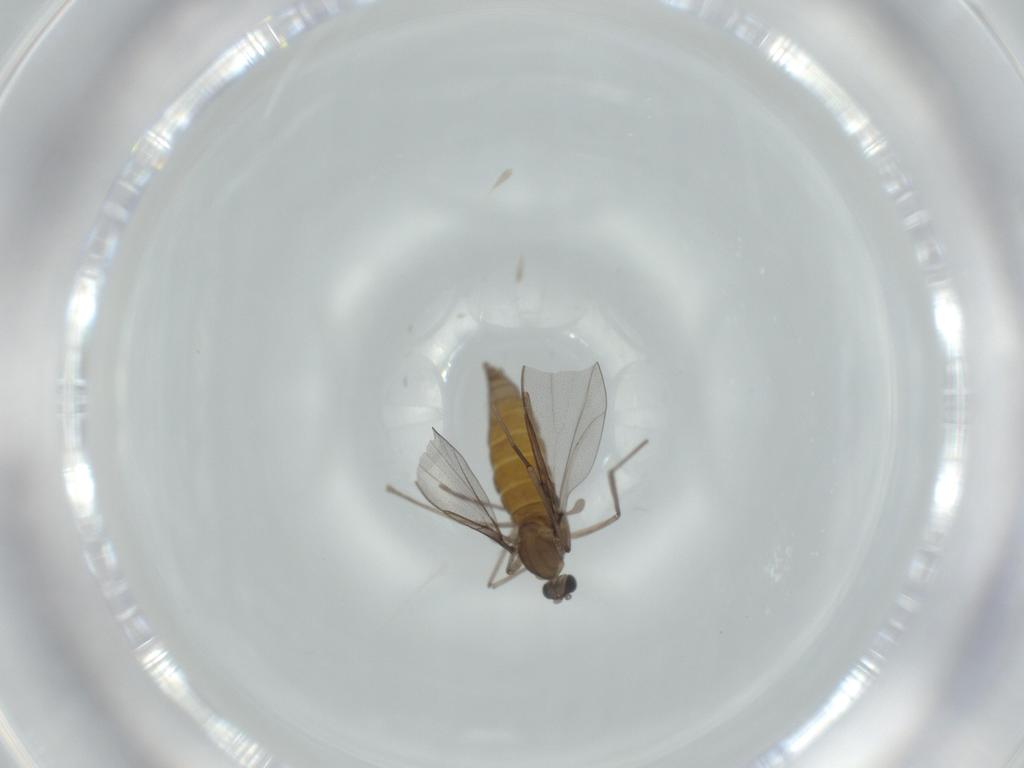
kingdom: Animalia
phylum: Arthropoda
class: Insecta
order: Diptera
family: Cecidomyiidae
